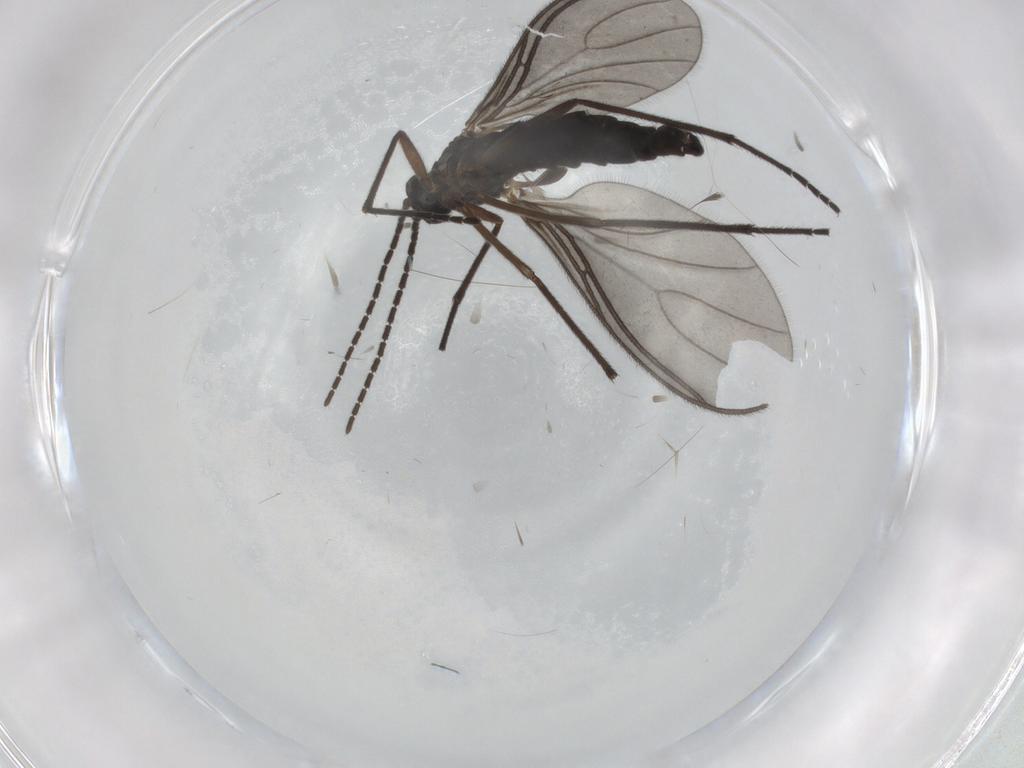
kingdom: Animalia
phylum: Arthropoda
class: Insecta
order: Diptera
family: Sciaridae
